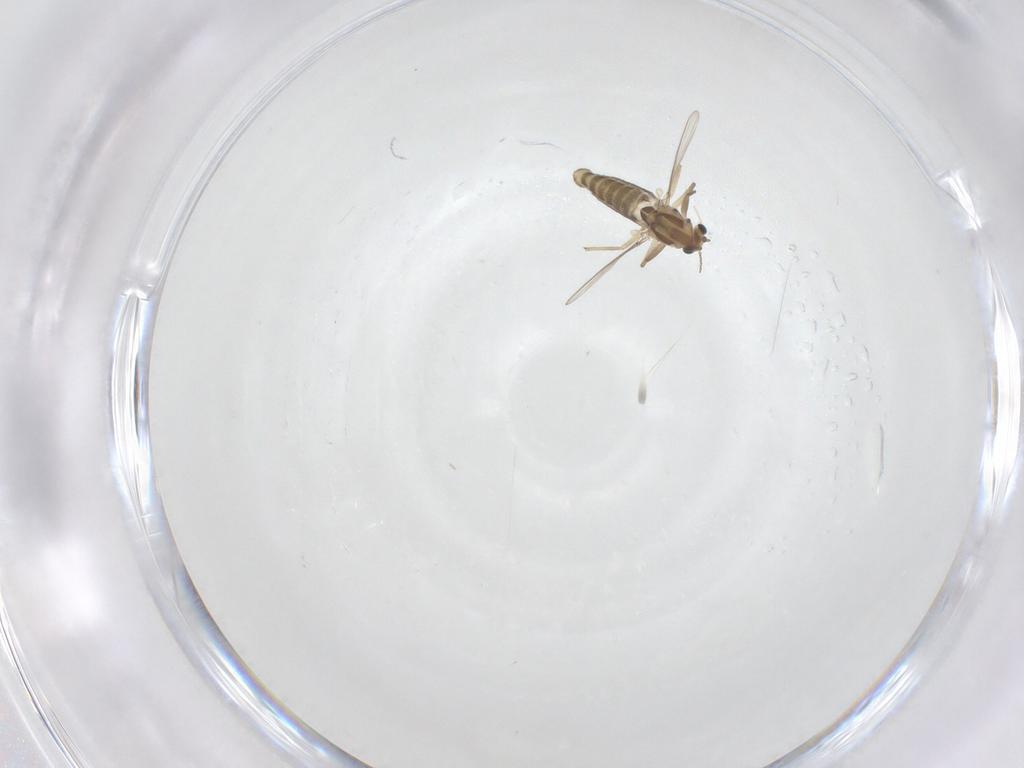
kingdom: Animalia
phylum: Arthropoda
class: Insecta
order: Diptera
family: Chironomidae
